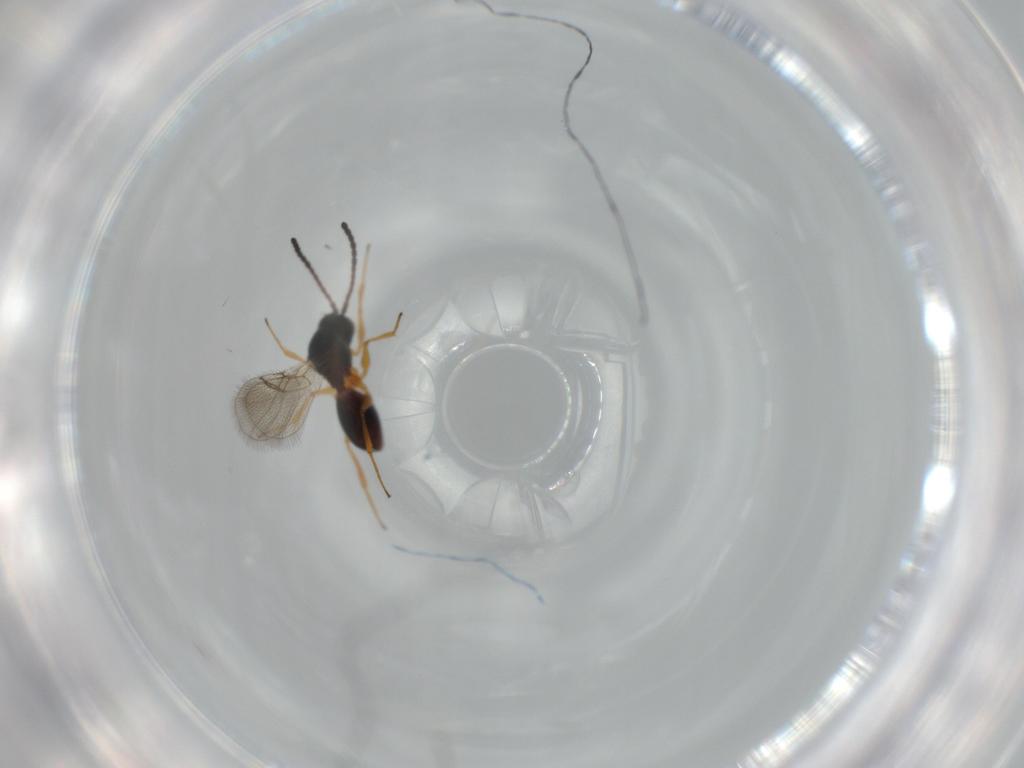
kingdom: Animalia
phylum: Arthropoda
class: Insecta
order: Hymenoptera
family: Figitidae
